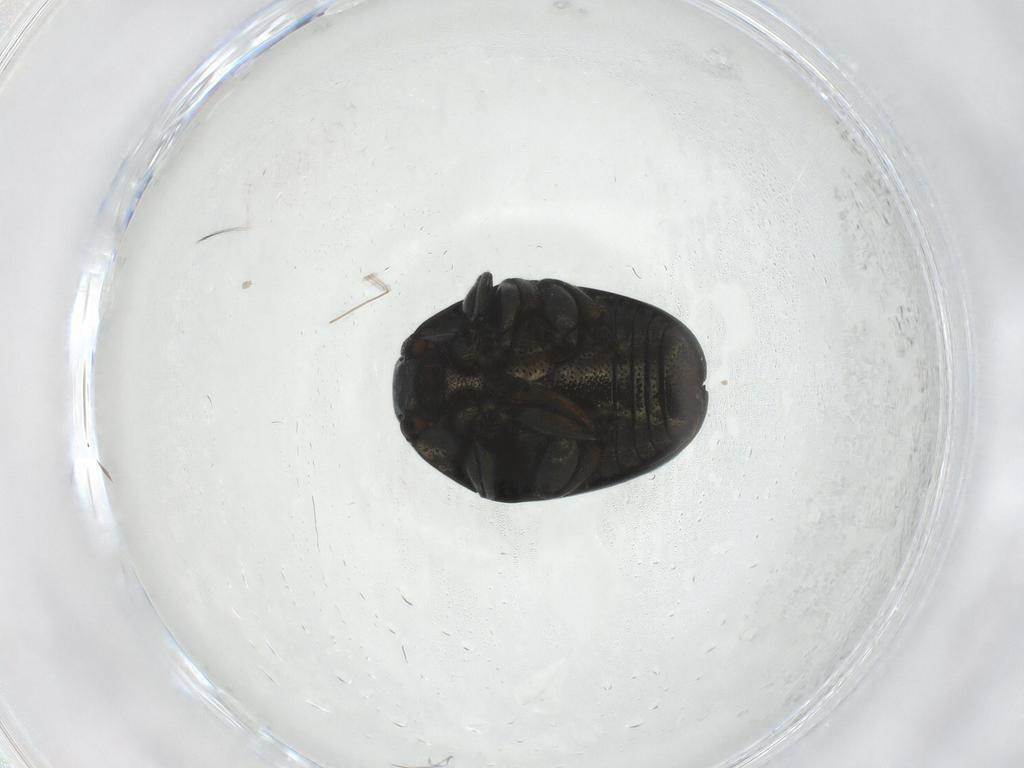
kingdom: Animalia
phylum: Arthropoda
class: Insecta
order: Coleoptera
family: Chrysomelidae
